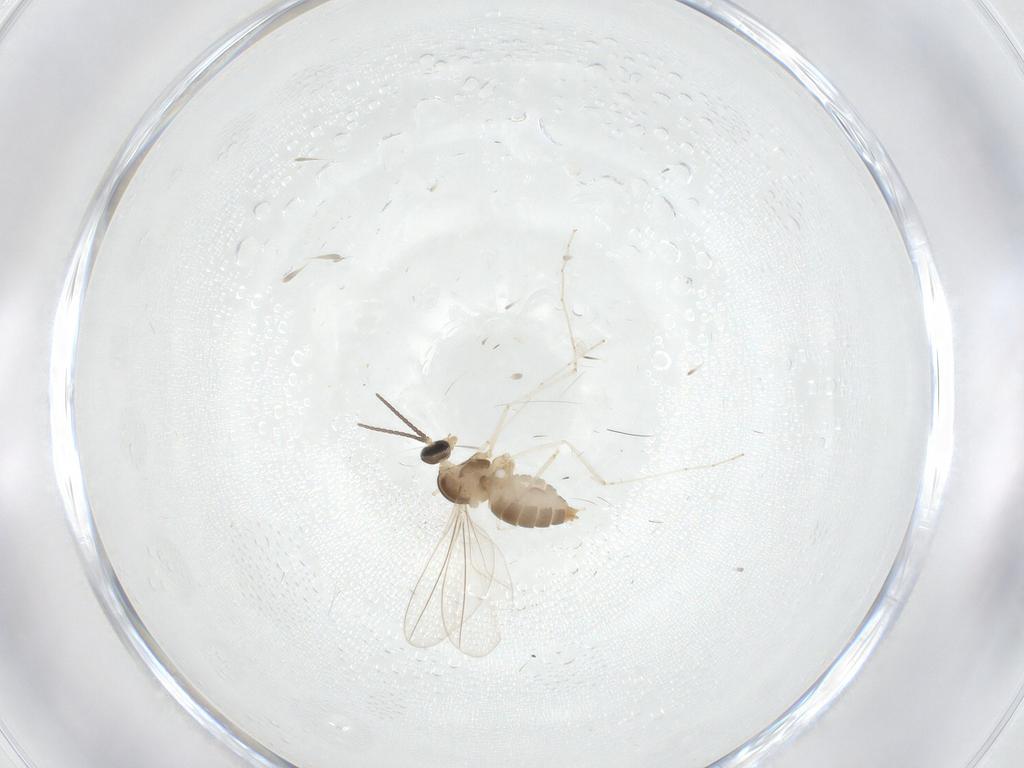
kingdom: Animalia
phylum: Arthropoda
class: Insecta
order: Diptera
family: Cecidomyiidae
